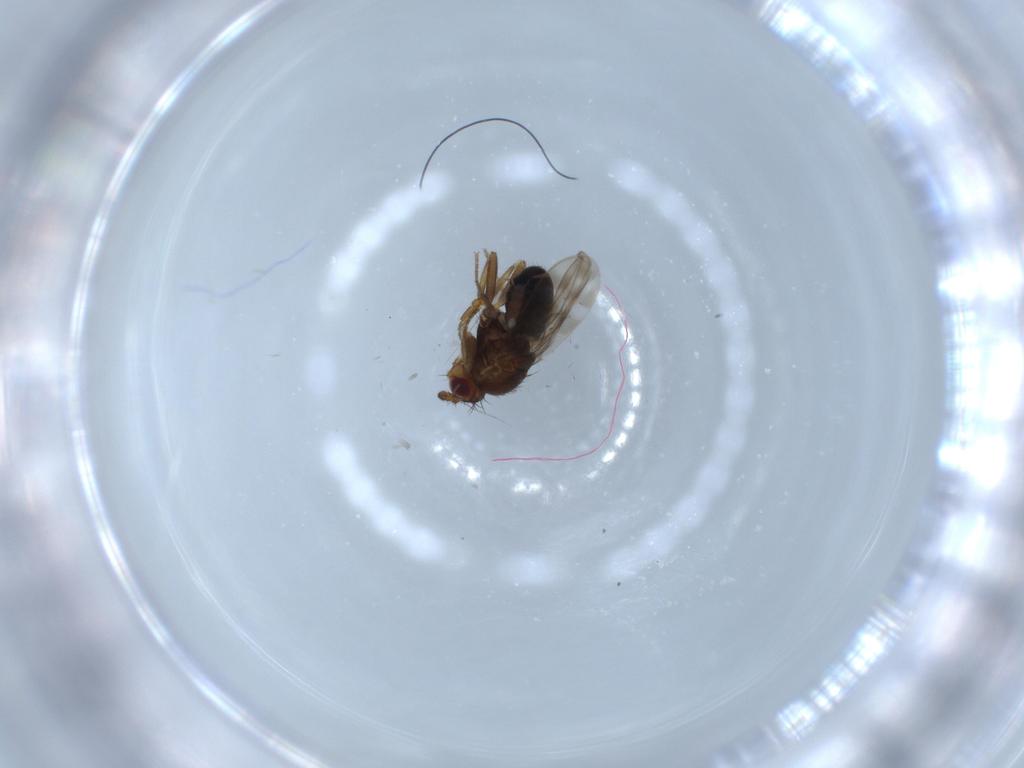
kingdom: Animalia
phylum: Arthropoda
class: Insecta
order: Diptera
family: Sphaeroceridae
